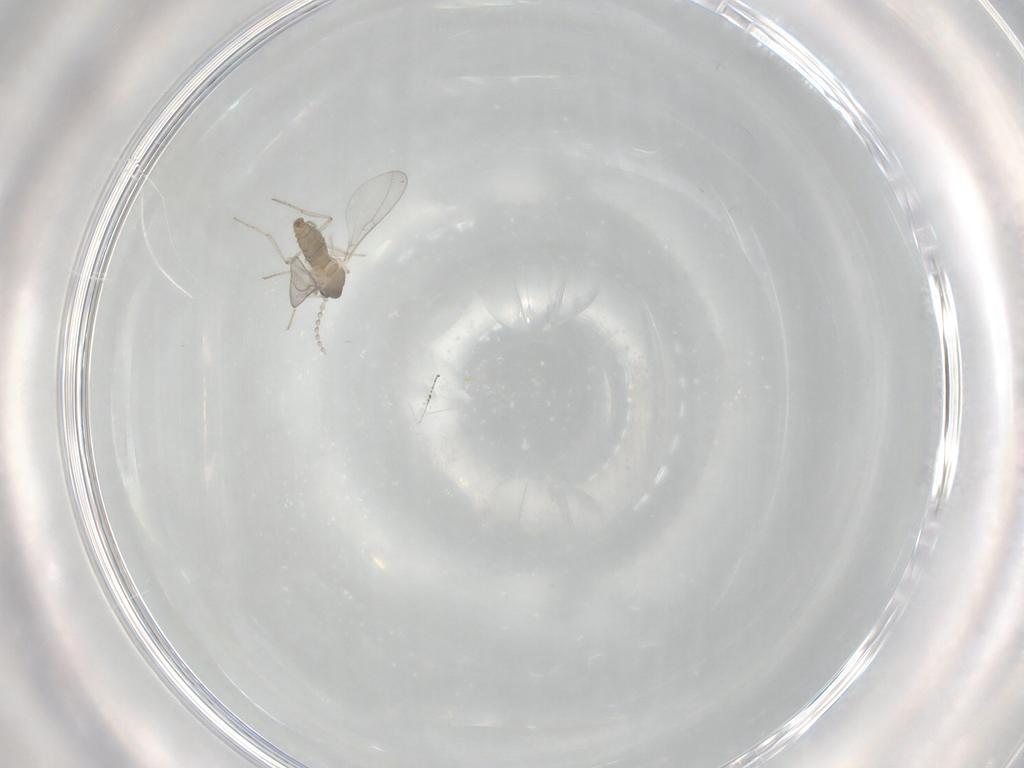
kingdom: Animalia
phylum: Arthropoda
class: Insecta
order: Diptera
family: Cecidomyiidae
